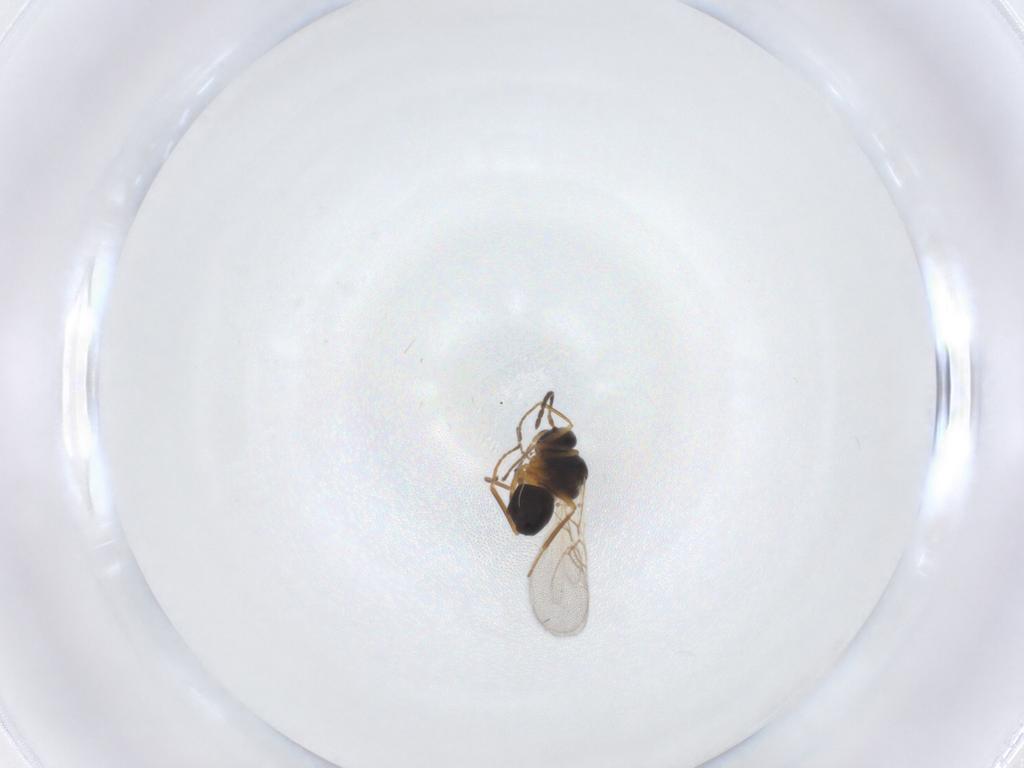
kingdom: Animalia
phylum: Arthropoda
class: Insecta
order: Hymenoptera
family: Figitidae
